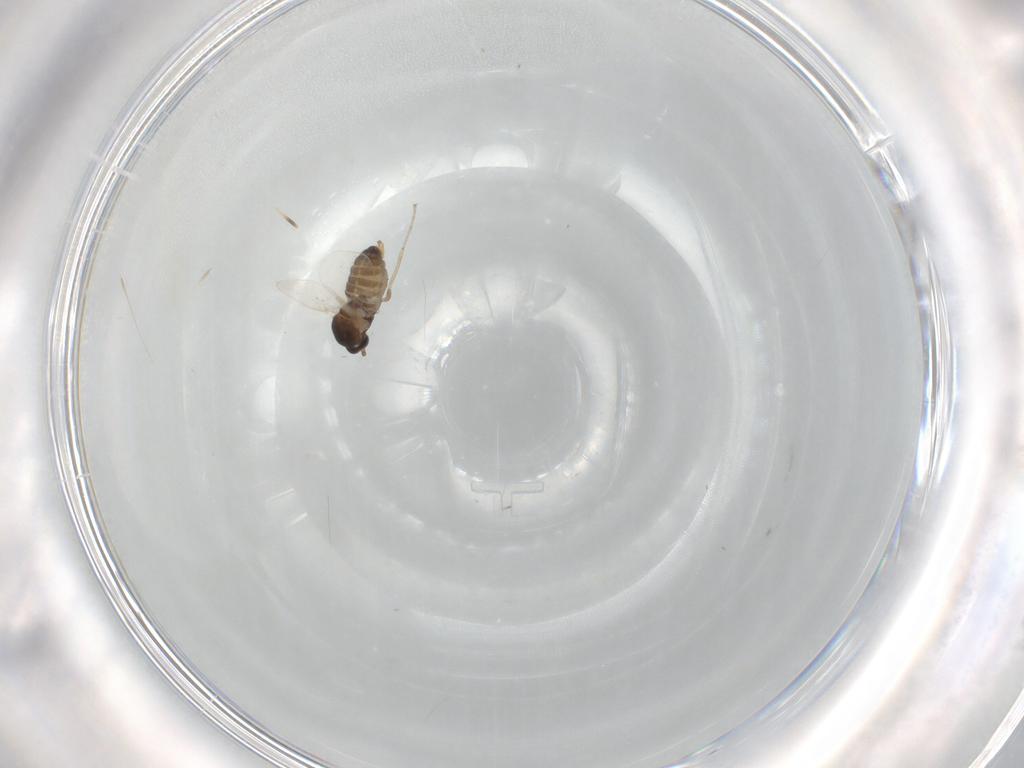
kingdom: Animalia
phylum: Arthropoda
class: Insecta
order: Diptera
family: Cecidomyiidae
